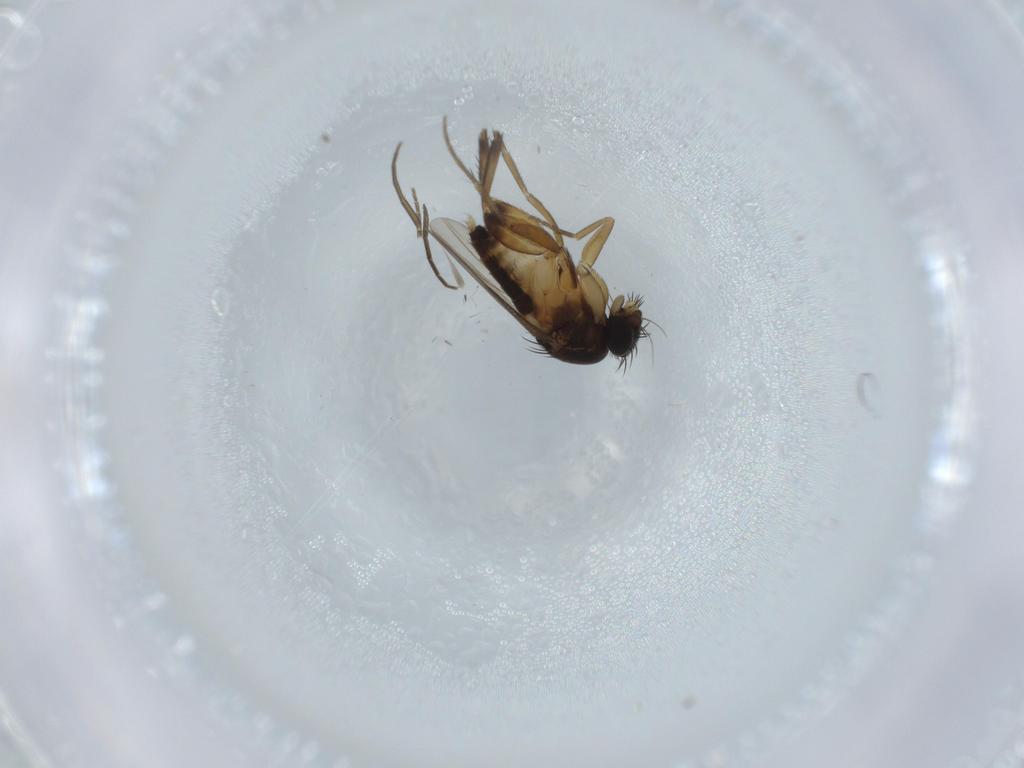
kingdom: Animalia
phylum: Arthropoda
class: Insecta
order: Diptera
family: Phoridae
